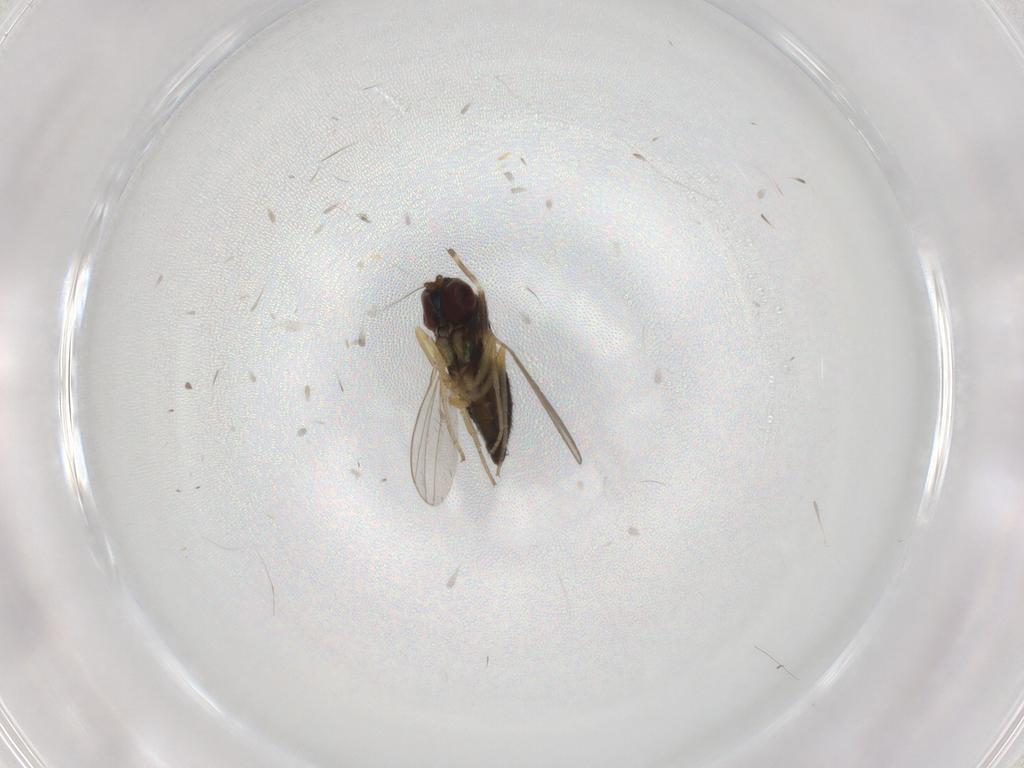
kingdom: Animalia
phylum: Arthropoda
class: Insecta
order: Diptera
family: Dolichopodidae
